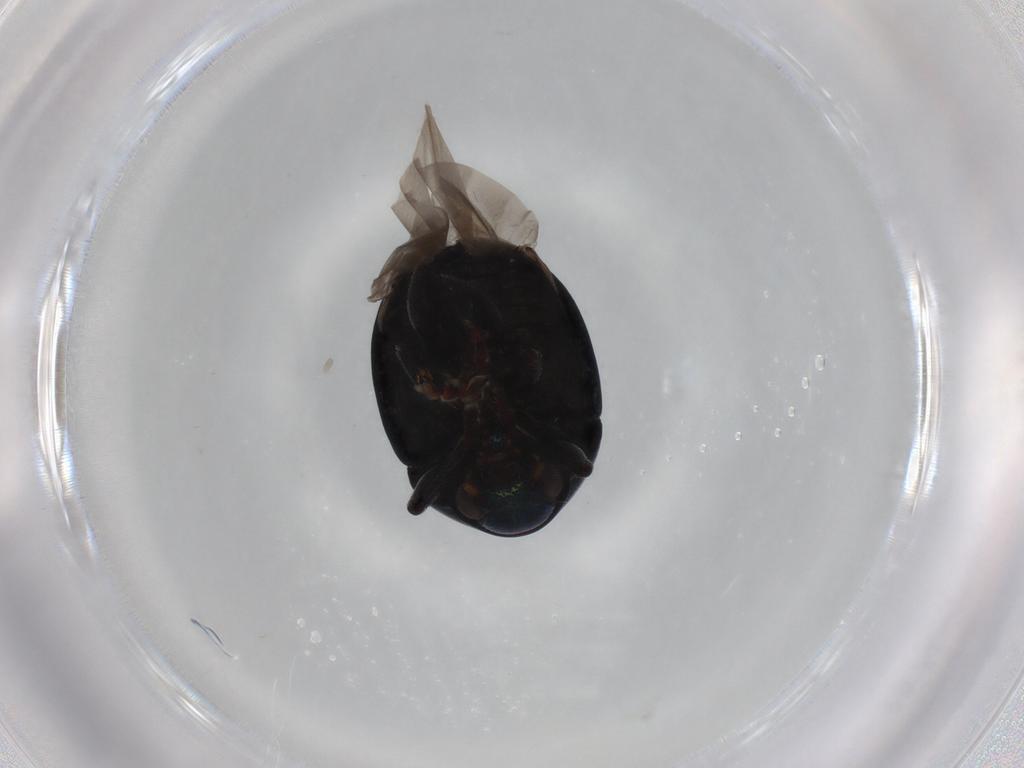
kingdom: Animalia
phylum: Arthropoda
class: Insecta
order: Coleoptera
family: Chrysomelidae
